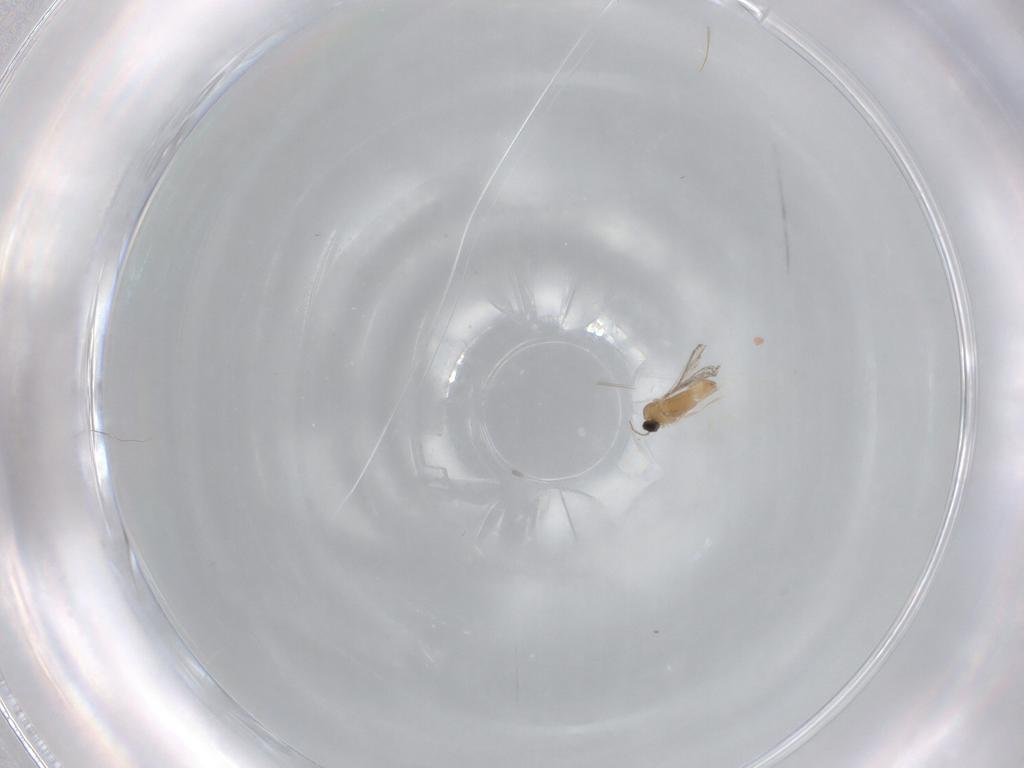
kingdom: Animalia
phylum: Arthropoda
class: Insecta
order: Diptera
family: Cecidomyiidae
